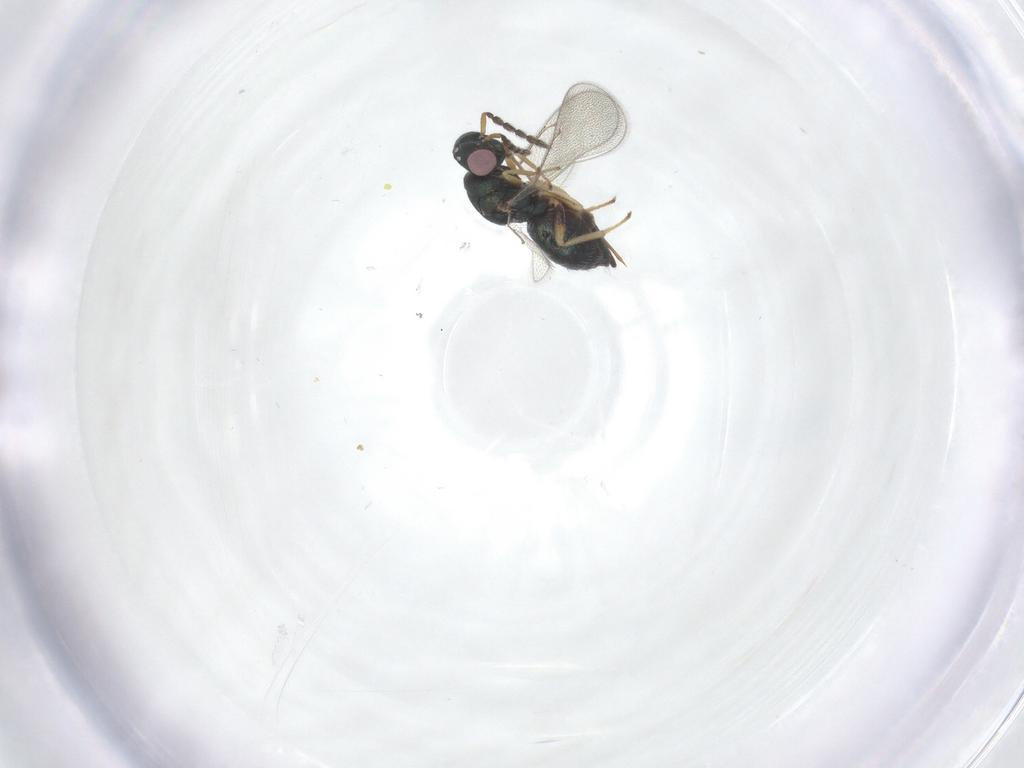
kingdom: Animalia
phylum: Arthropoda
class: Insecta
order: Hymenoptera
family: Eulophidae
